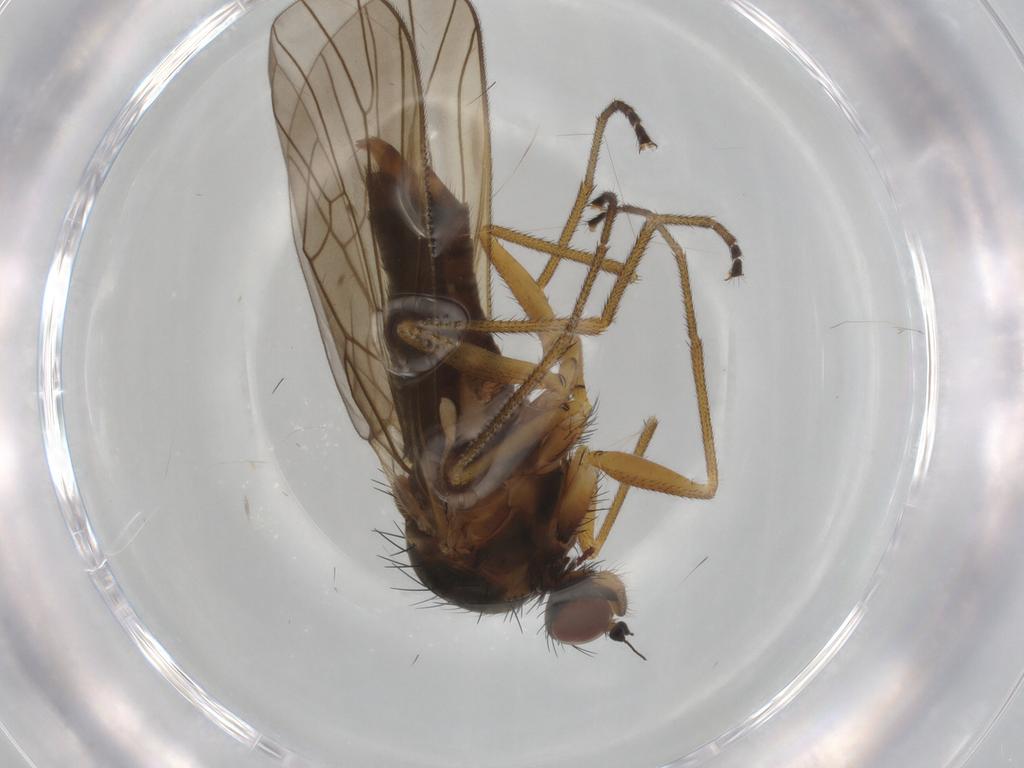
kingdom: Animalia
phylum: Arthropoda
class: Insecta
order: Diptera
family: Brachystomatidae
